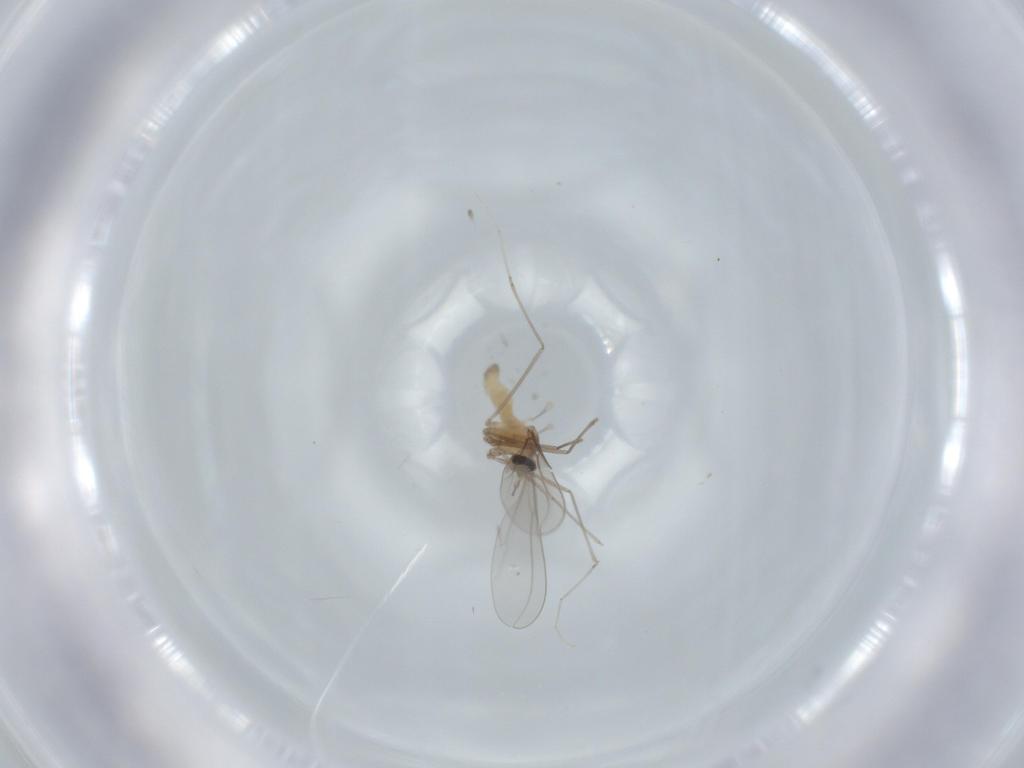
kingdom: Animalia
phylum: Arthropoda
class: Insecta
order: Diptera
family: Cecidomyiidae
